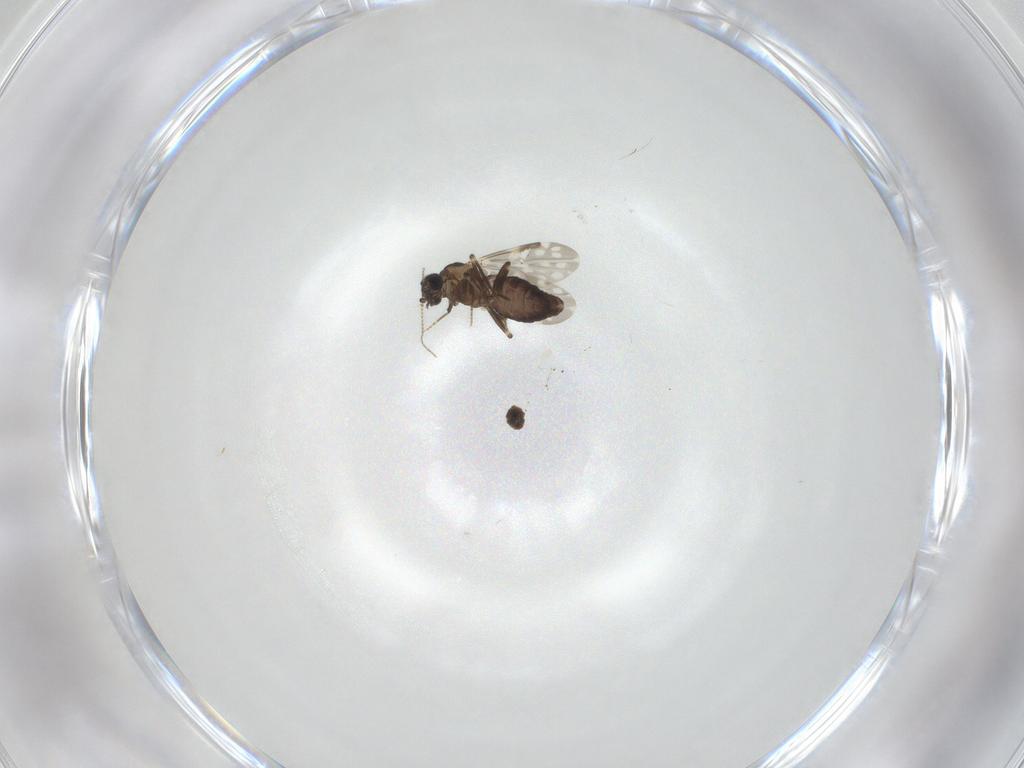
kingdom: Animalia
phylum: Arthropoda
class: Insecta
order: Diptera
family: Ceratopogonidae
